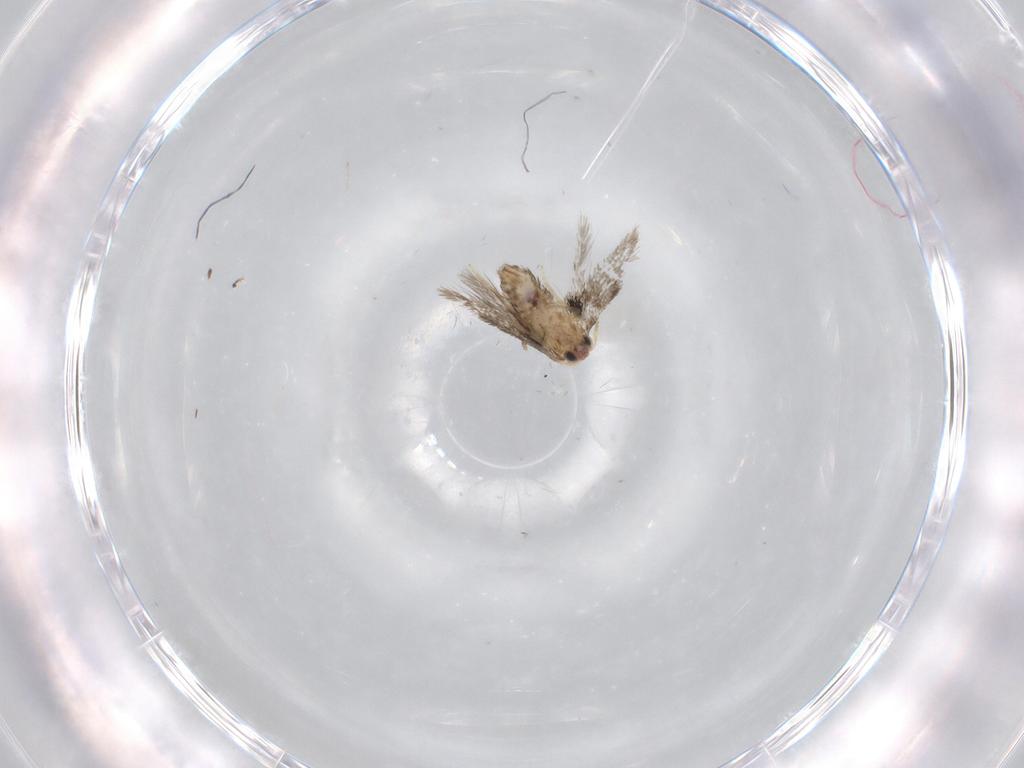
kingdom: Animalia
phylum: Arthropoda
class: Insecta
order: Lepidoptera
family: Nepticulidae
